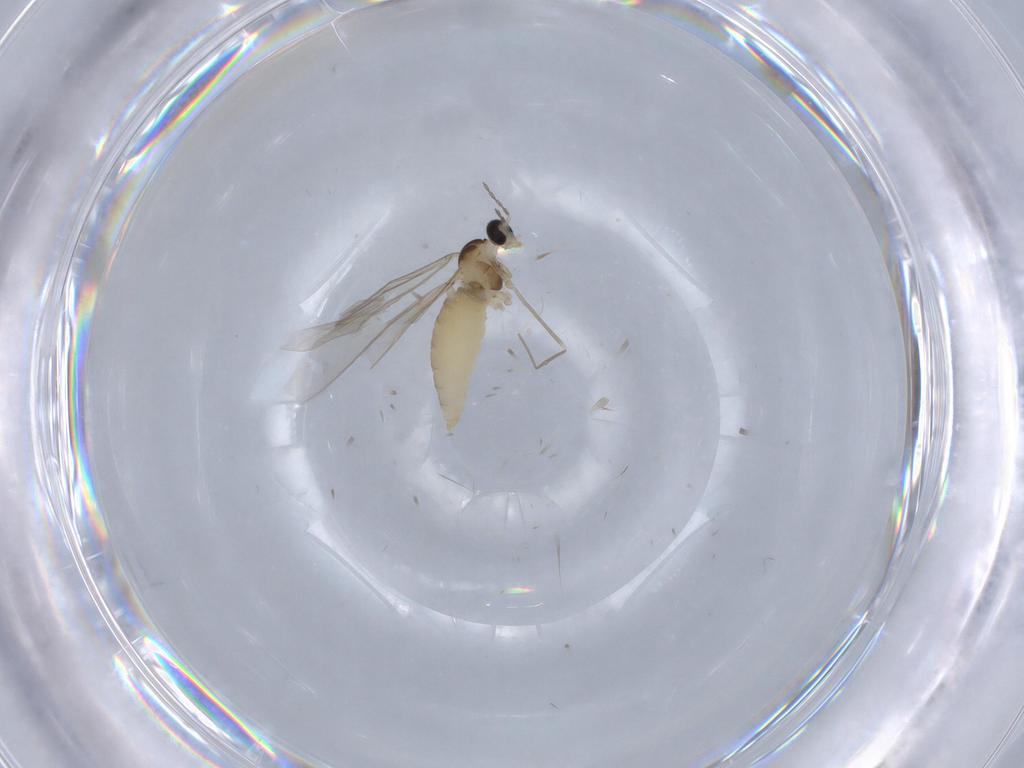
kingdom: Animalia
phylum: Arthropoda
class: Insecta
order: Diptera
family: Cecidomyiidae
